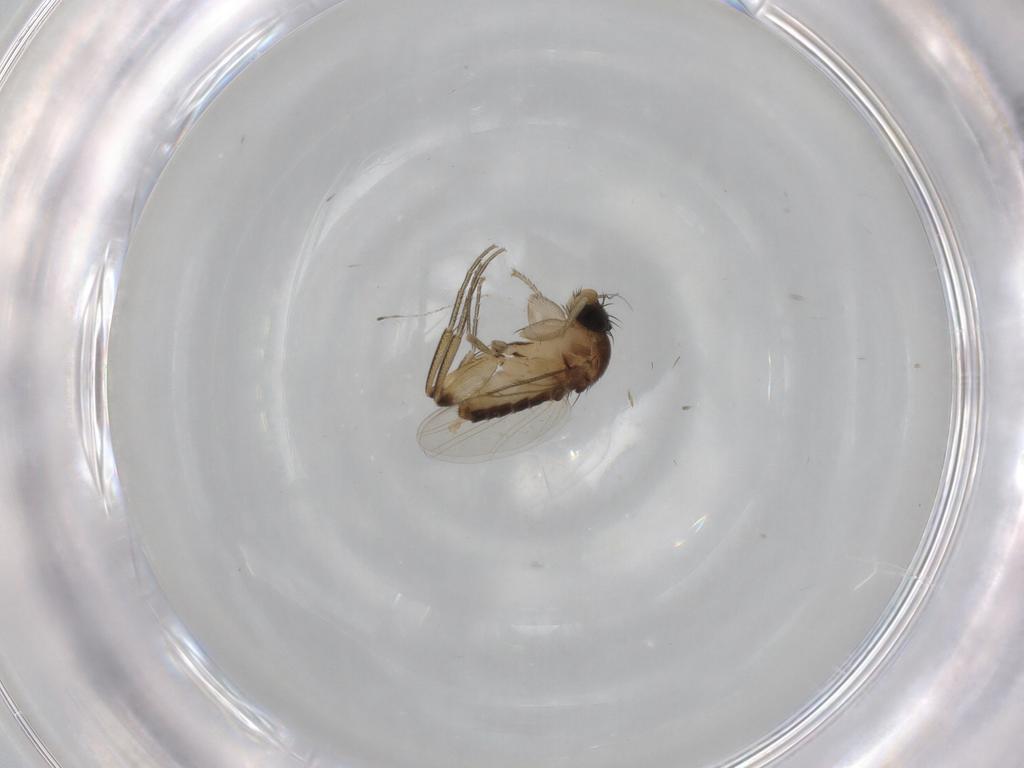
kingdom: Animalia
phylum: Arthropoda
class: Insecta
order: Diptera
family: Phoridae
